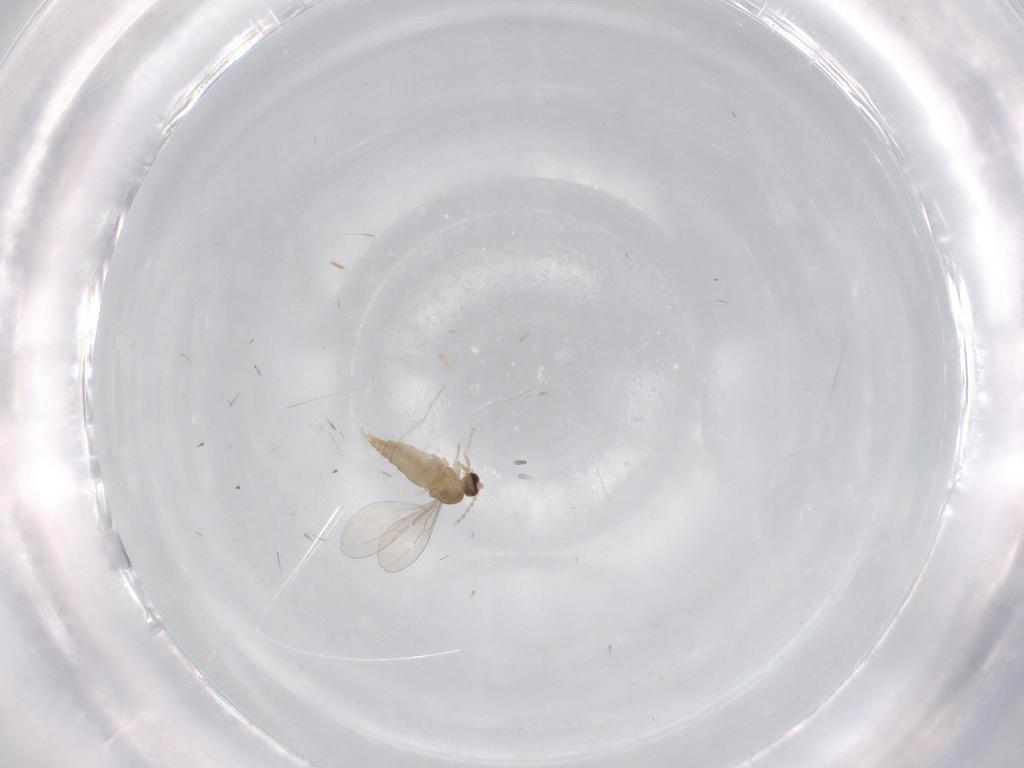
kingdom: Animalia
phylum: Arthropoda
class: Insecta
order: Diptera
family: Cecidomyiidae
